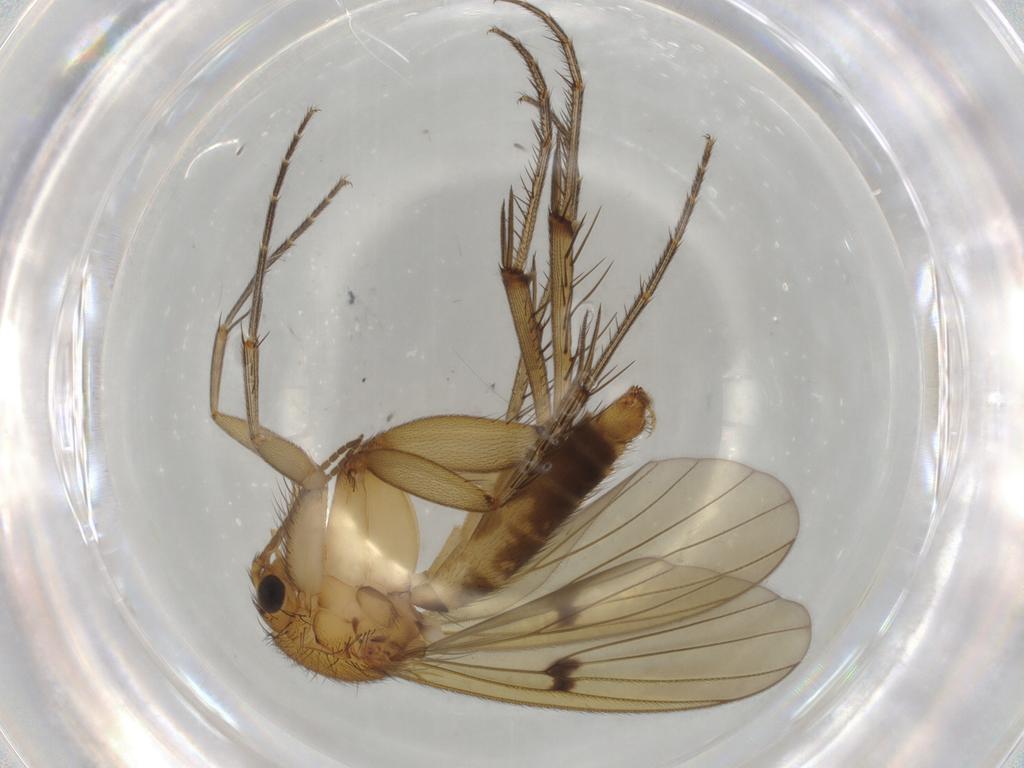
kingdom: Animalia
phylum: Arthropoda
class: Insecta
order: Diptera
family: Mycetophilidae
